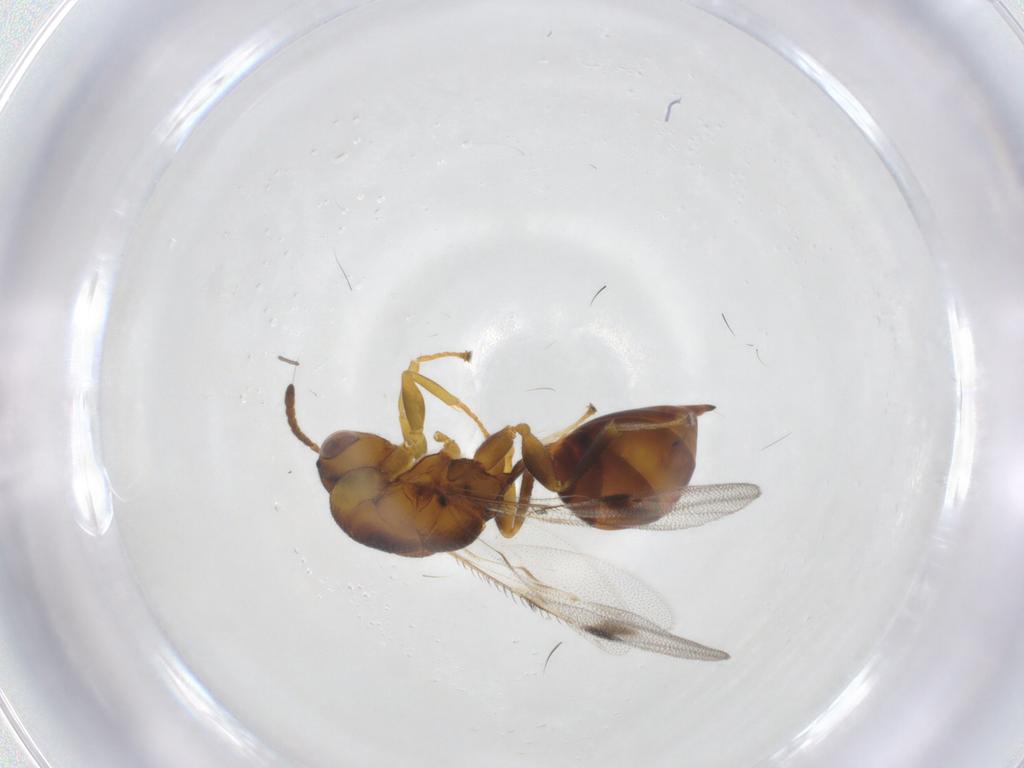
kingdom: Animalia
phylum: Arthropoda
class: Insecta
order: Hymenoptera
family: Eurytomidae
